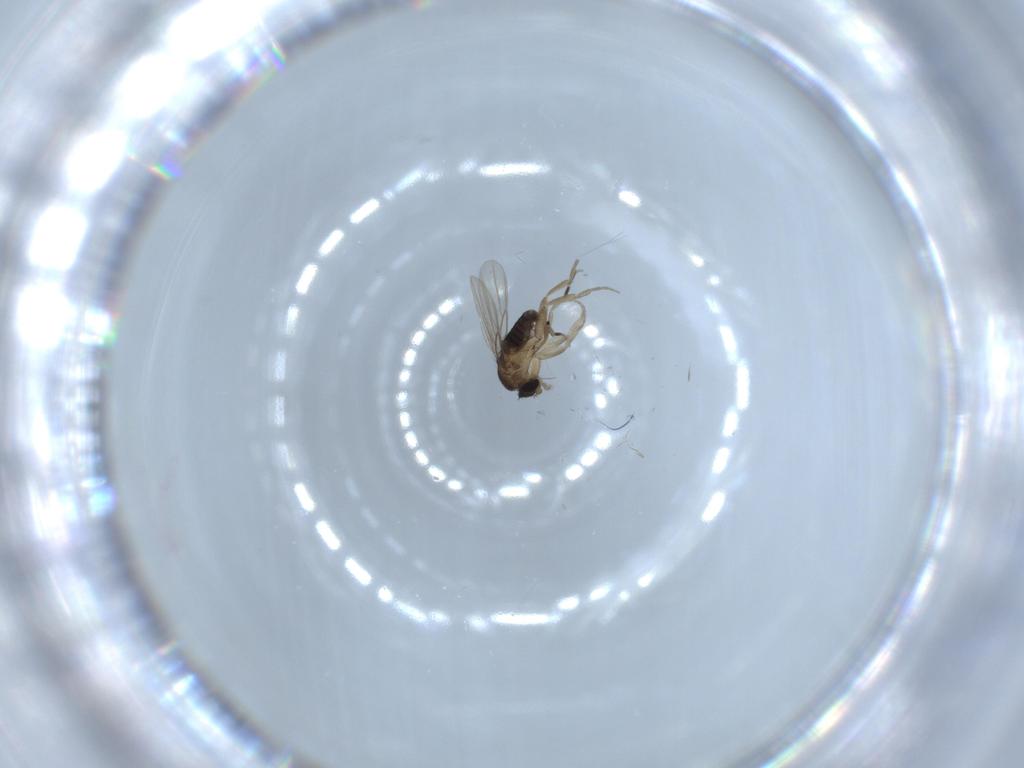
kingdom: Animalia
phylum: Arthropoda
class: Insecta
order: Diptera
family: Phoridae
